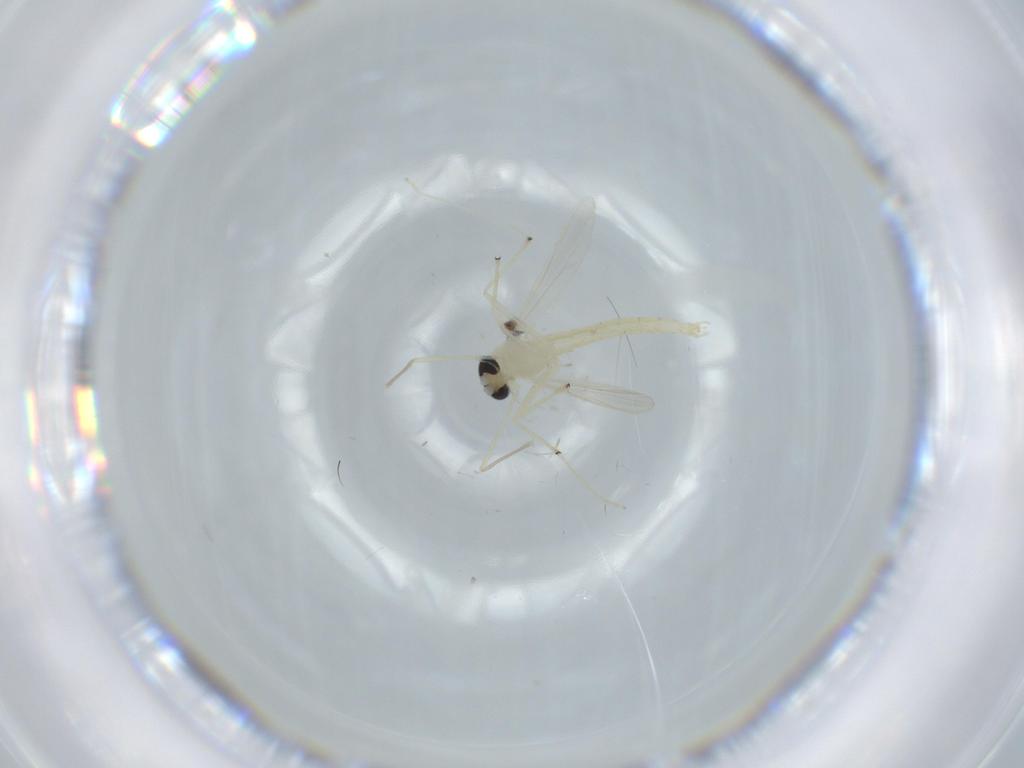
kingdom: Animalia
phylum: Arthropoda
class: Insecta
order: Diptera
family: Chironomidae
